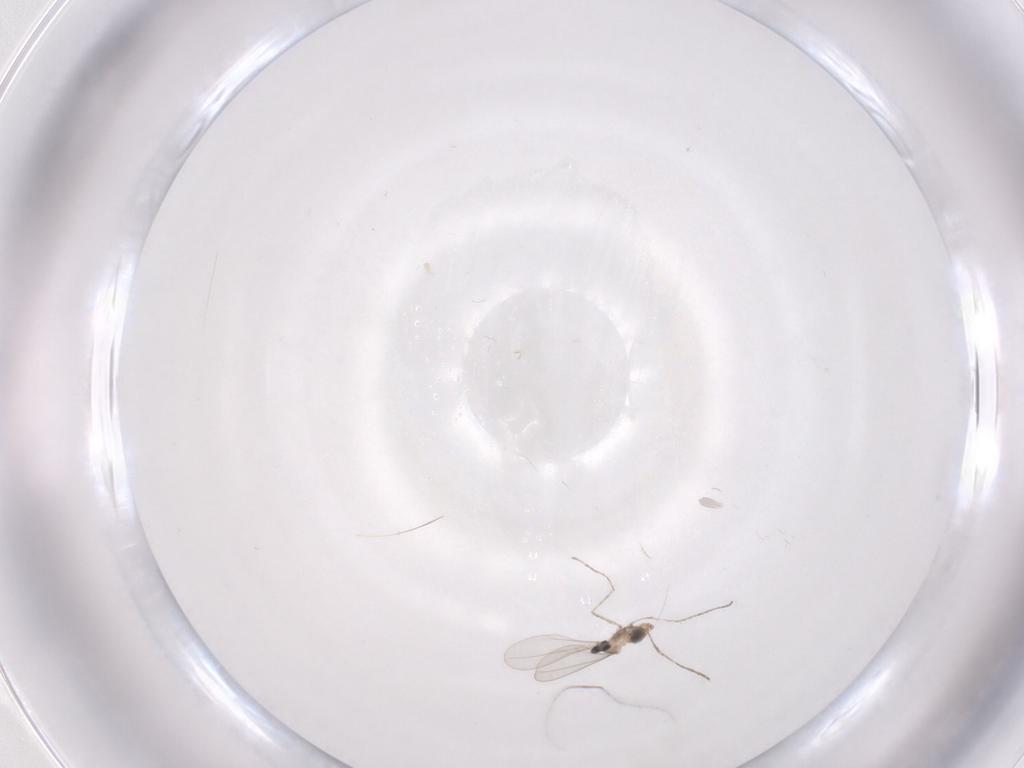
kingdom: Animalia
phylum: Arthropoda
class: Insecta
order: Diptera
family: Cecidomyiidae
